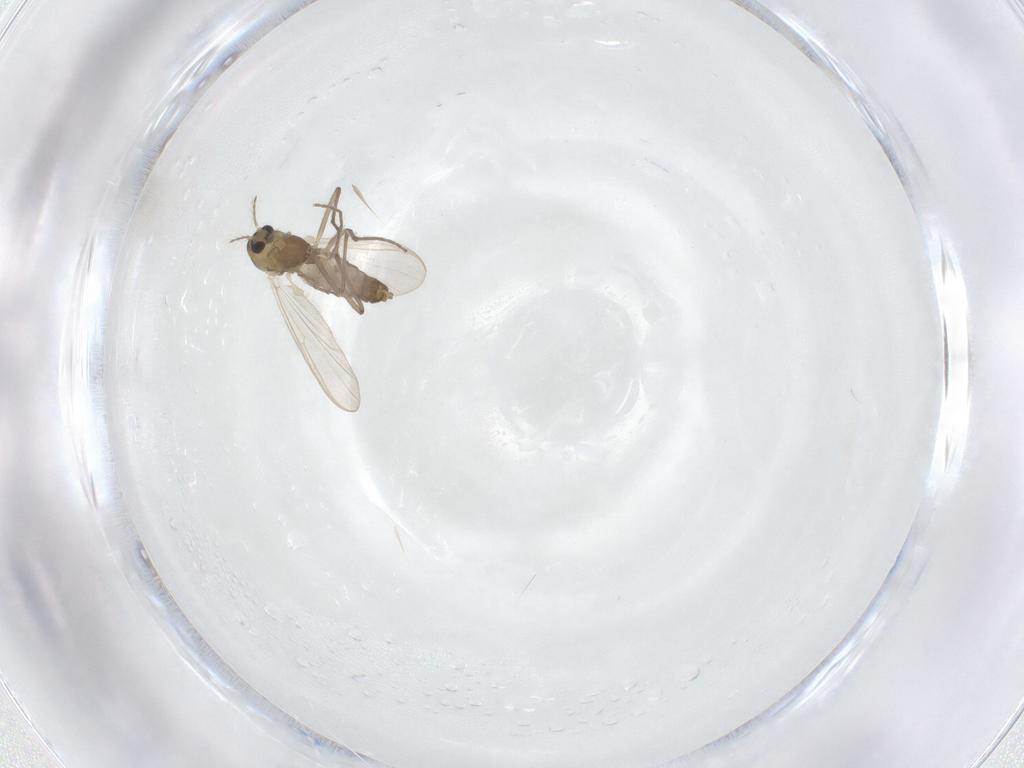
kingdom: Animalia
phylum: Arthropoda
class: Insecta
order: Diptera
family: Chironomidae
